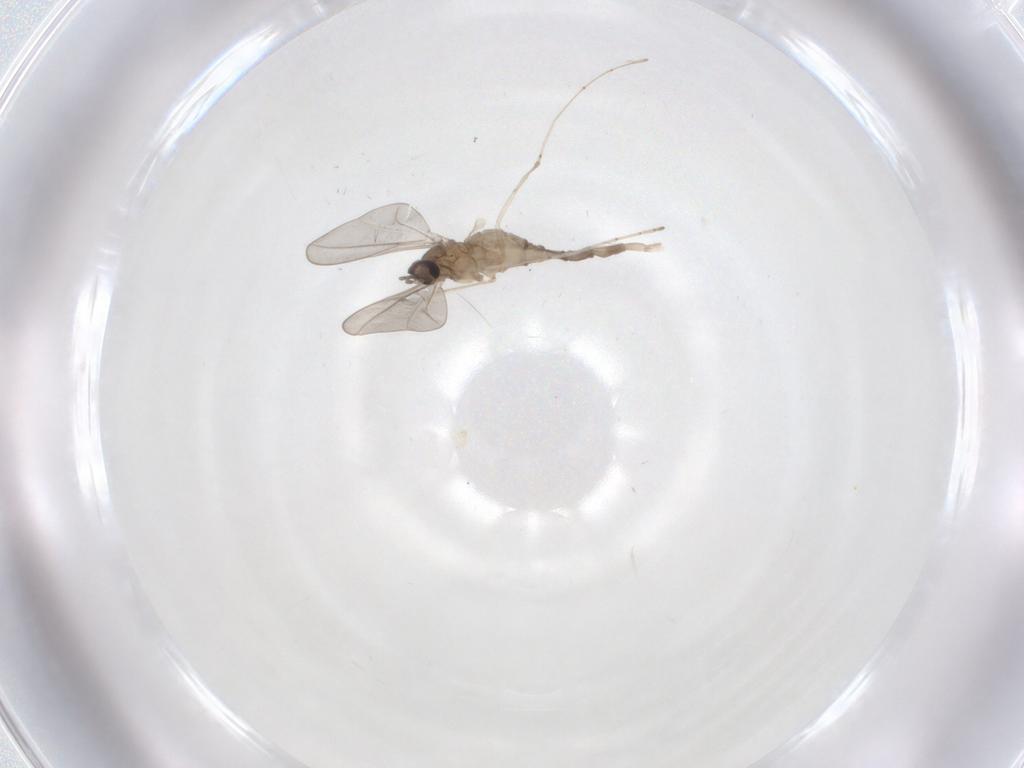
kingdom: Animalia
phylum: Arthropoda
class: Insecta
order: Diptera
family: Cecidomyiidae
